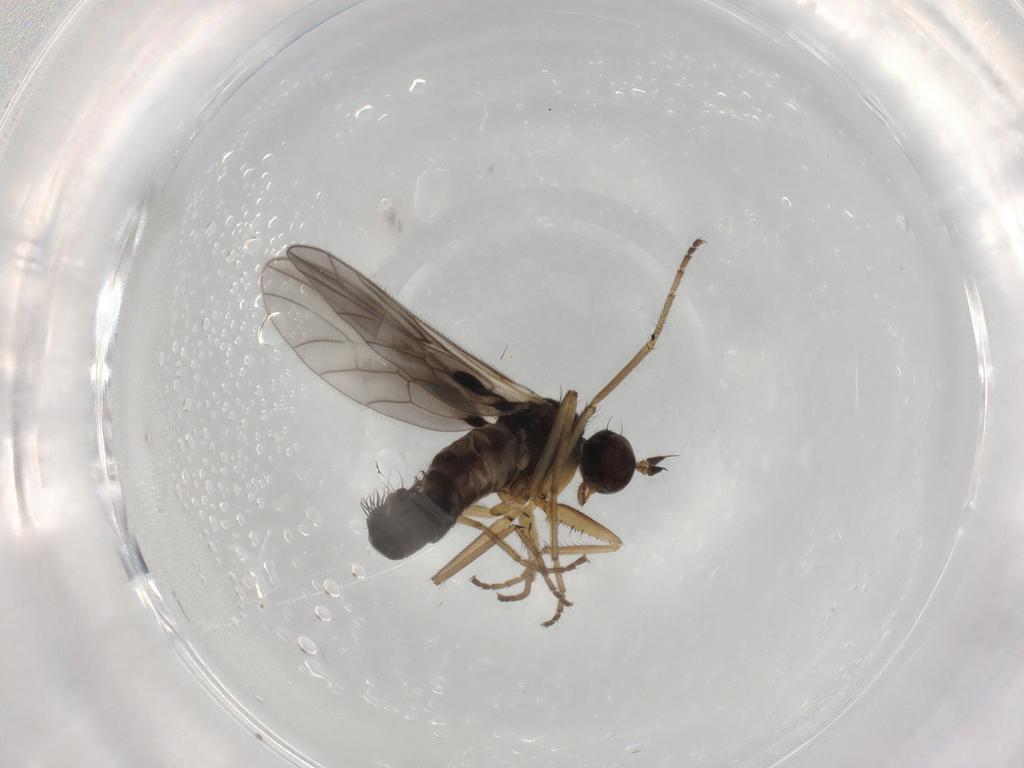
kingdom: Animalia
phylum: Arthropoda
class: Insecta
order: Diptera
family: Empididae
